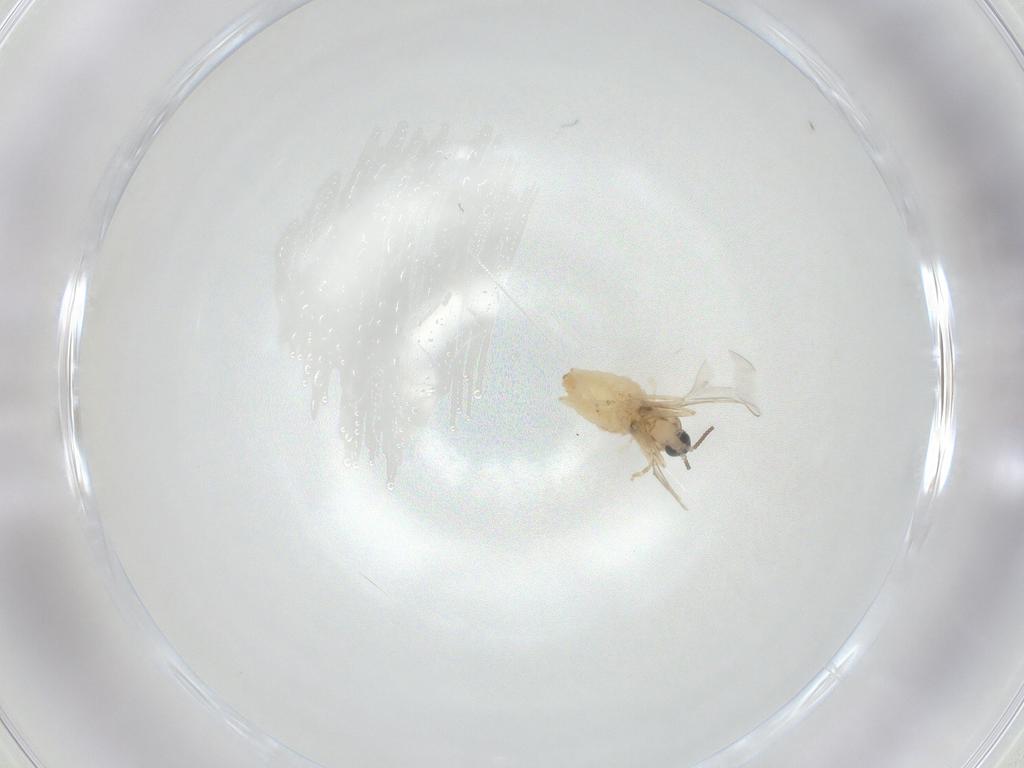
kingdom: Animalia
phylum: Arthropoda
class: Insecta
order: Diptera
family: Cecidomyiidae
